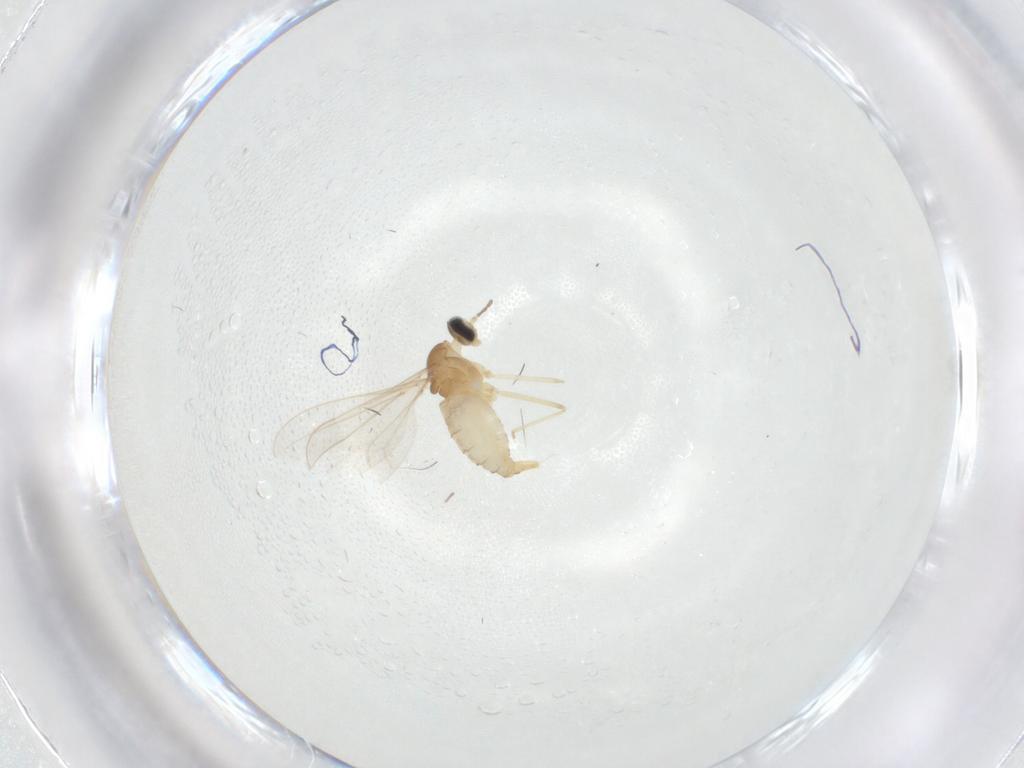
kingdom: Animalia
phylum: Arthropoda
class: Insecta
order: Diptera
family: Cecidomyiidae
